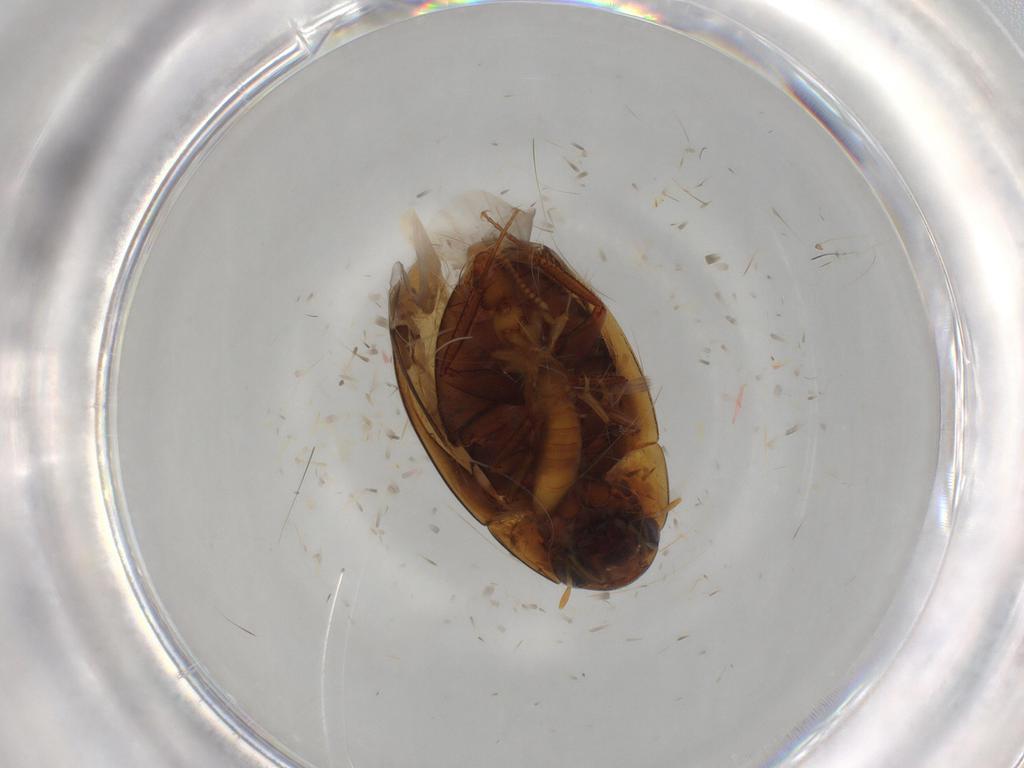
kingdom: Animalia
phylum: Arthropoda
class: Insecta
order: Coleoptera
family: Hydrophilidae
